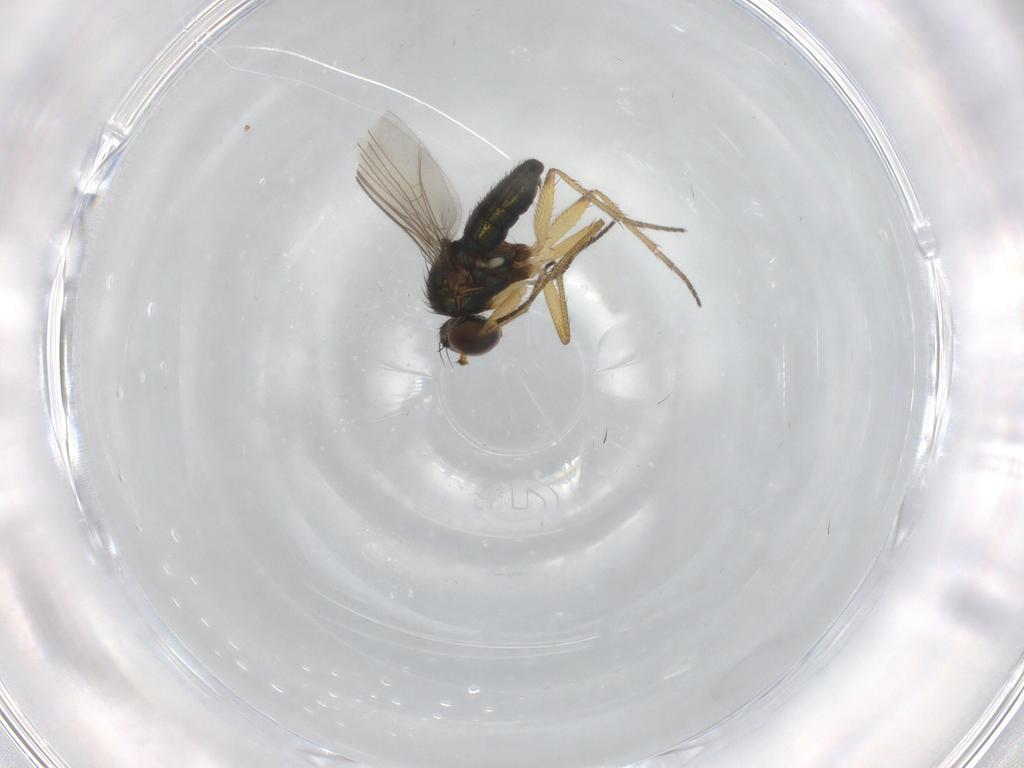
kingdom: Animalia
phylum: Arthropoda
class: Insecta
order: Diptera
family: Dolichopodidae
